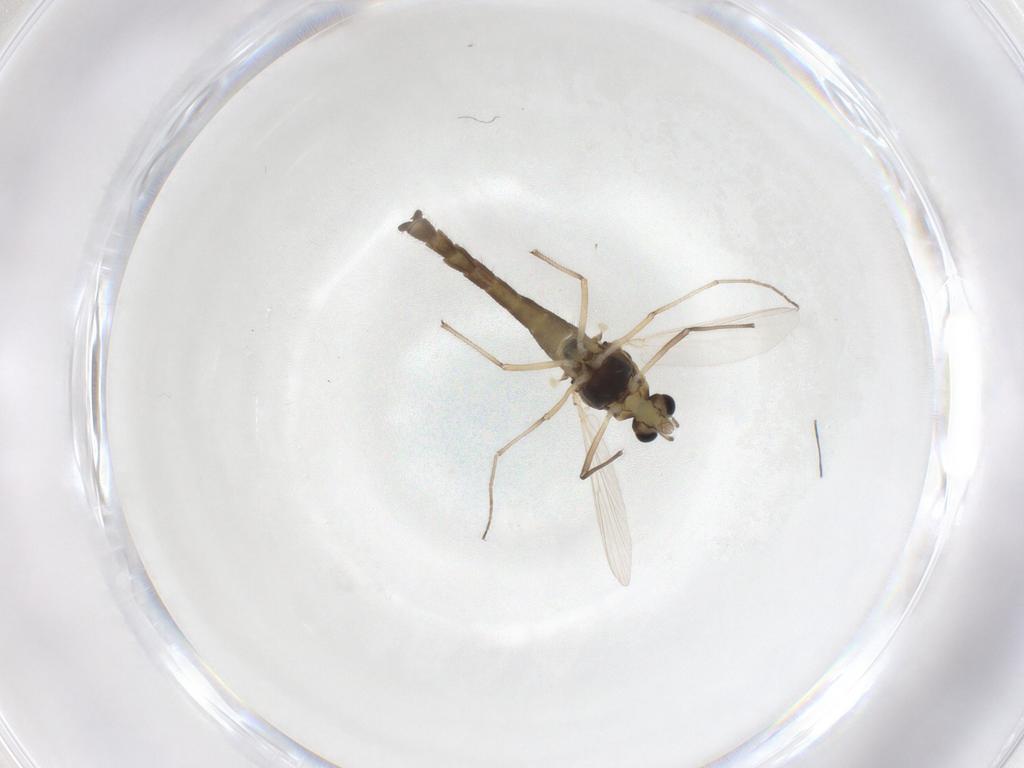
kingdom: Animalia
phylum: Arthropoda
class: Insecta
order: Diptera
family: Chironomidae
